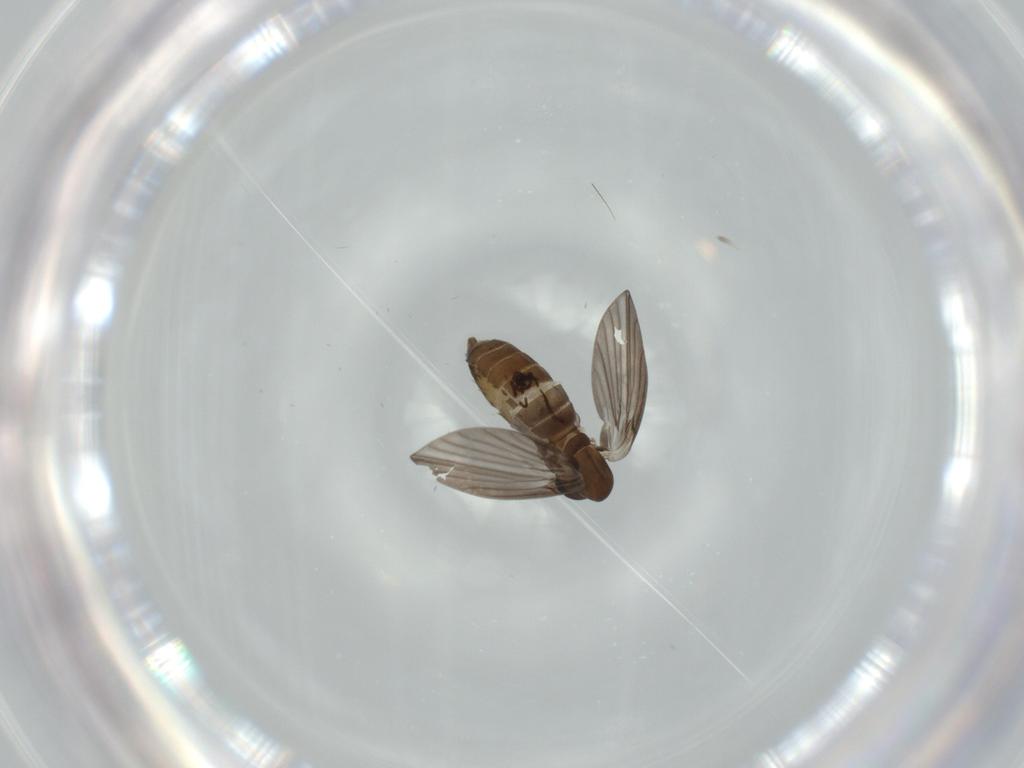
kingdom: Animalia
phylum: Arthropoda
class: Insecta
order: Diptera
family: Psychodidae
